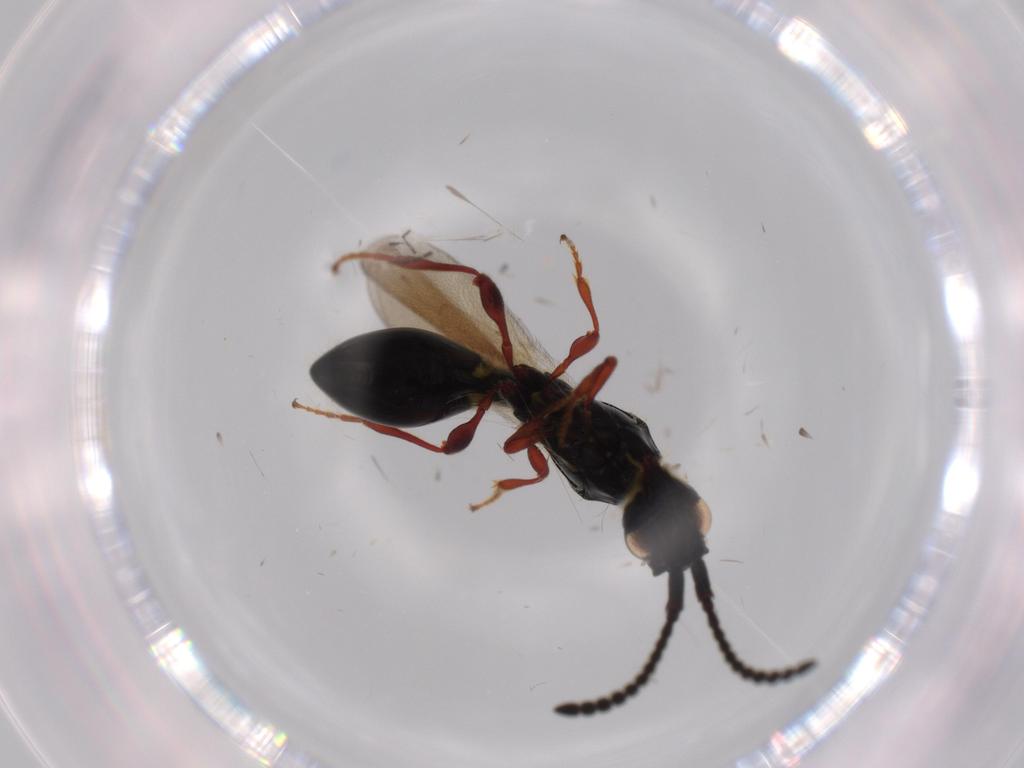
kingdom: Animalia
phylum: Arthropoda
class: Insecta
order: Hymenoptera
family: Diapriidae
